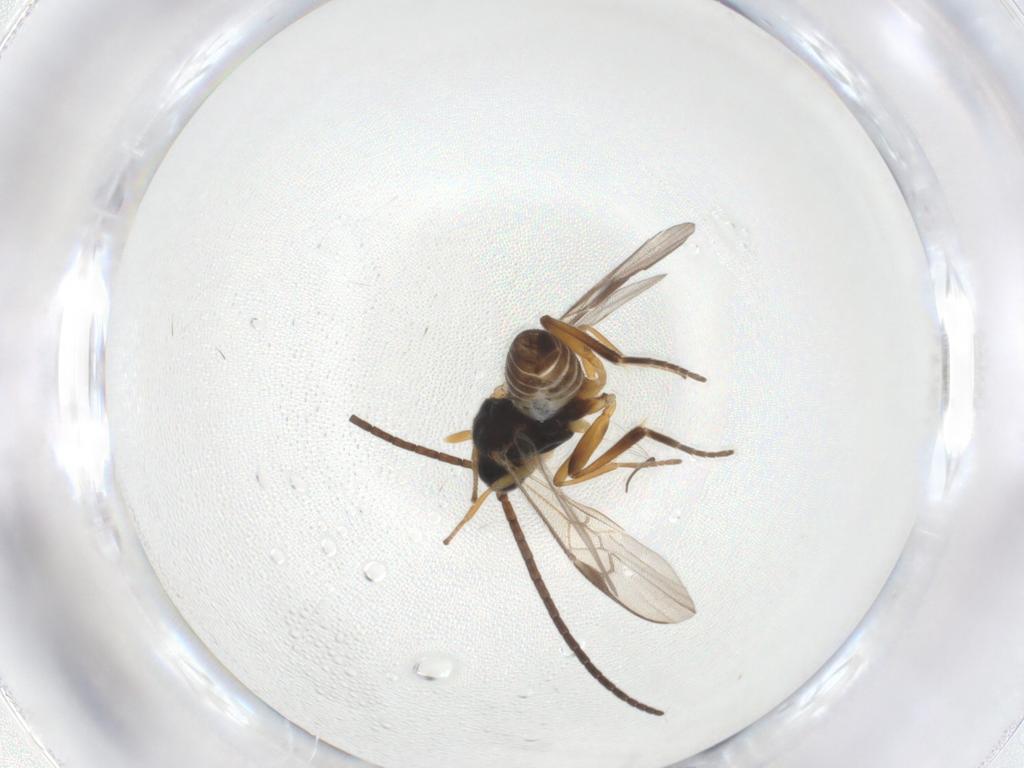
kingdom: Animalia
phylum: Arthropoda
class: Insecta
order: Hymenoptera
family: Braconidae
